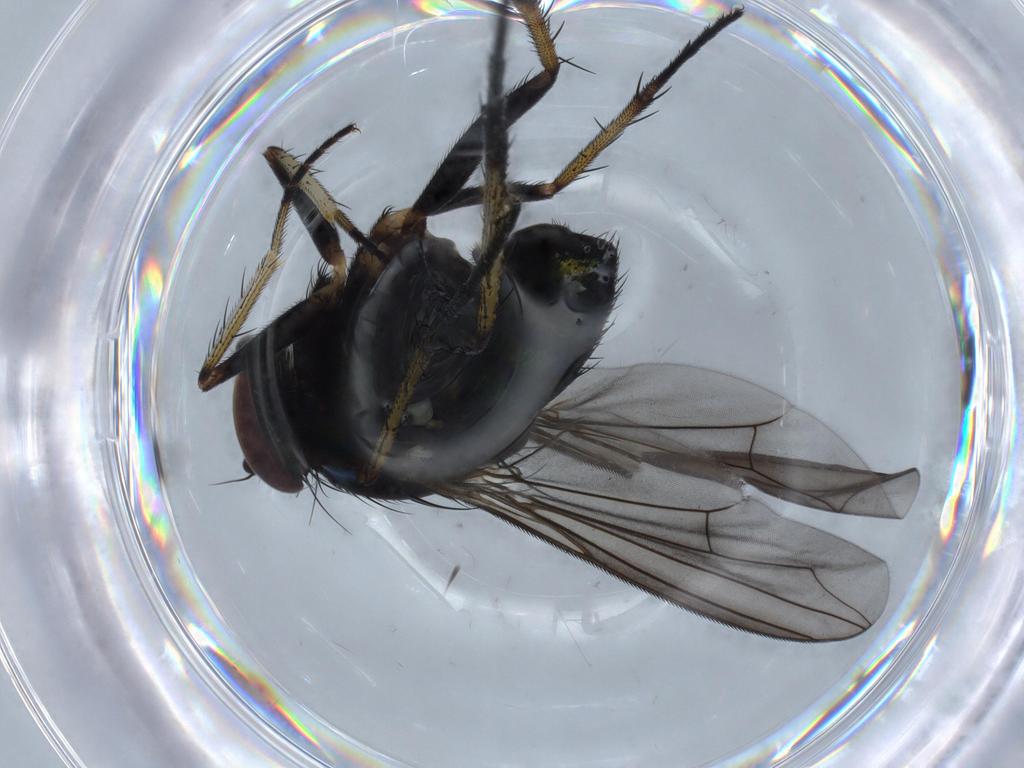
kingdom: Animalia
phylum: Arthropoda
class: Insecta
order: Diptera
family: Dolichopodidae
